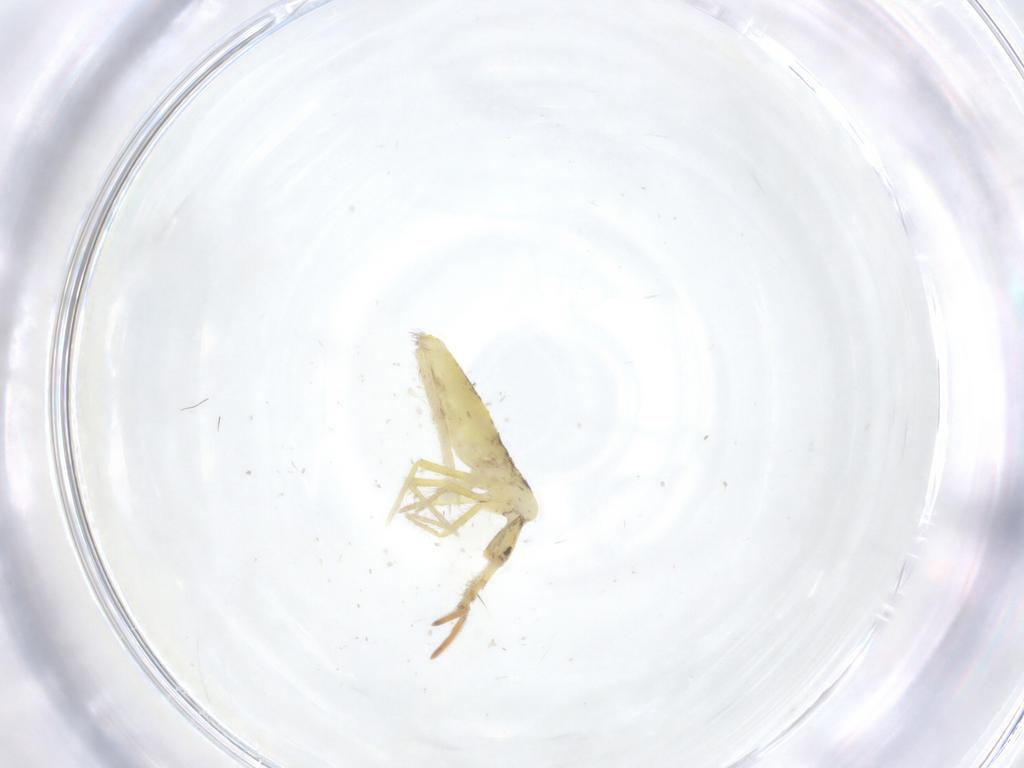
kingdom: Animalia
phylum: Arthropoda
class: Collembola
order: Entomobryomorpha
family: Entomobryidae
